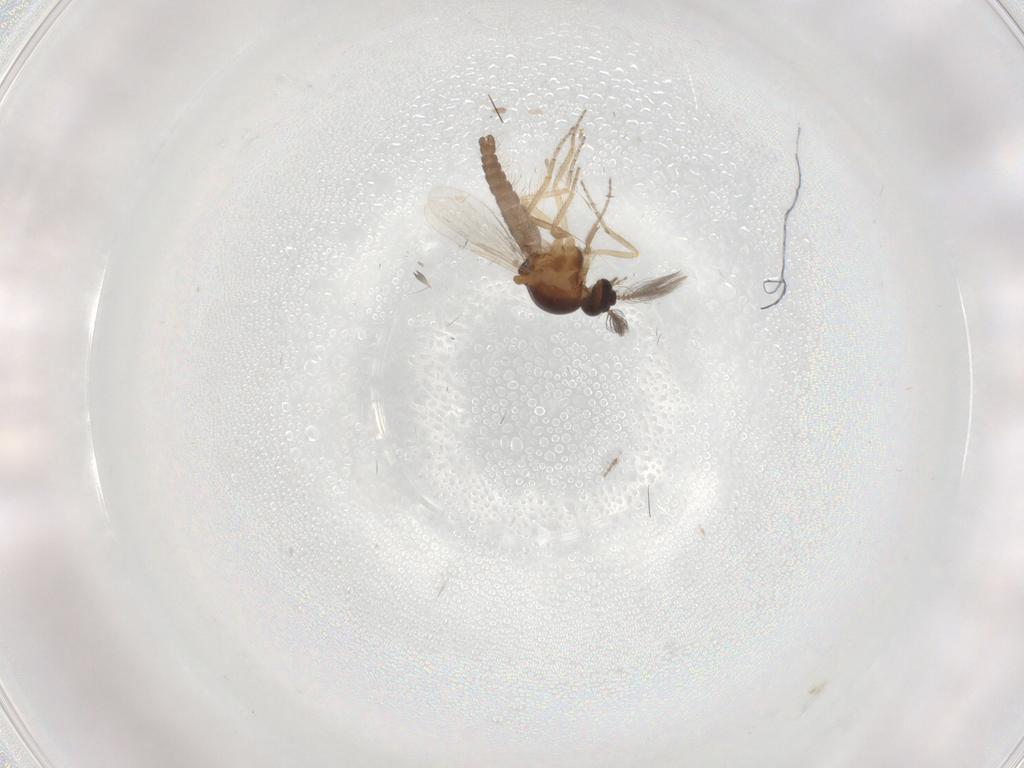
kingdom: Animalia
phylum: Arthropoda
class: Insecta
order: Diptera
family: Ceratopogonidae
